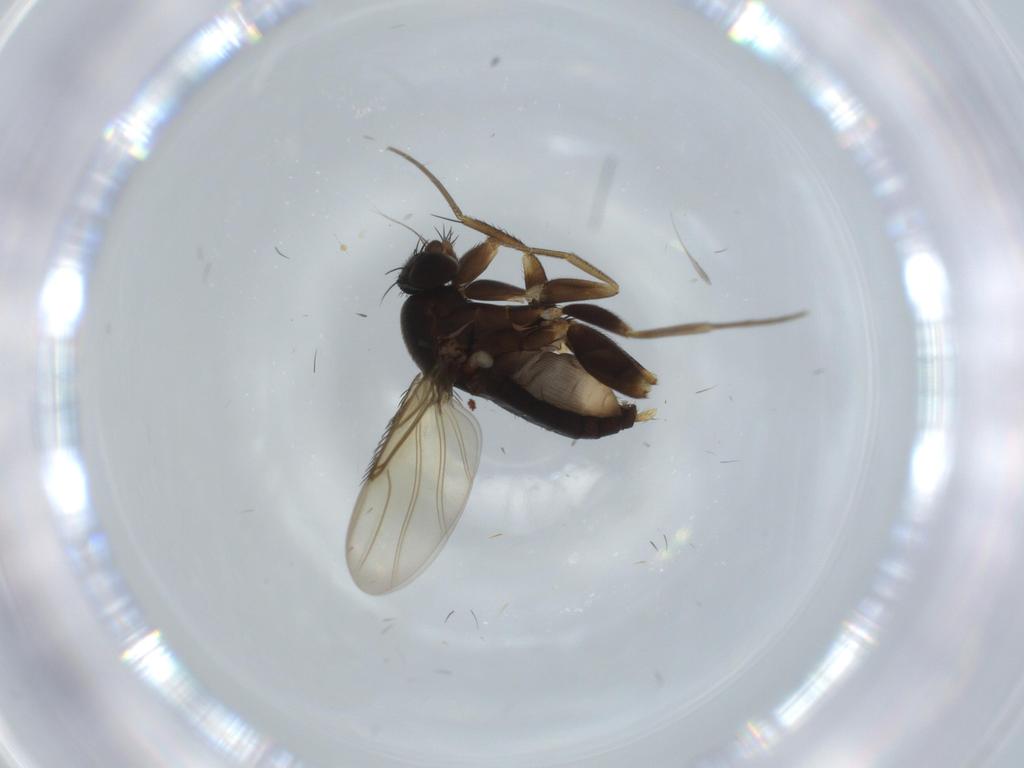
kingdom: Animalia
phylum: Arthropoda
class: Insecta
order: Diptera
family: Phoridae
